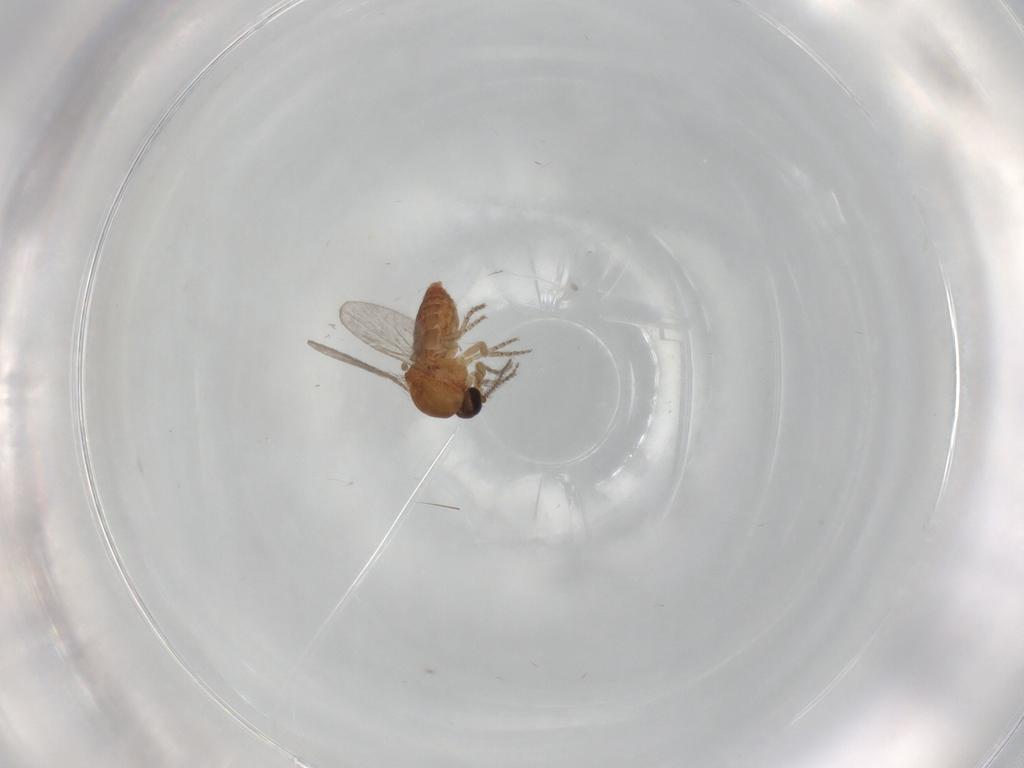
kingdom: Animalia
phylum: Arthropoda
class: Insecta
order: Diptera
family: Ceratopogonidae
